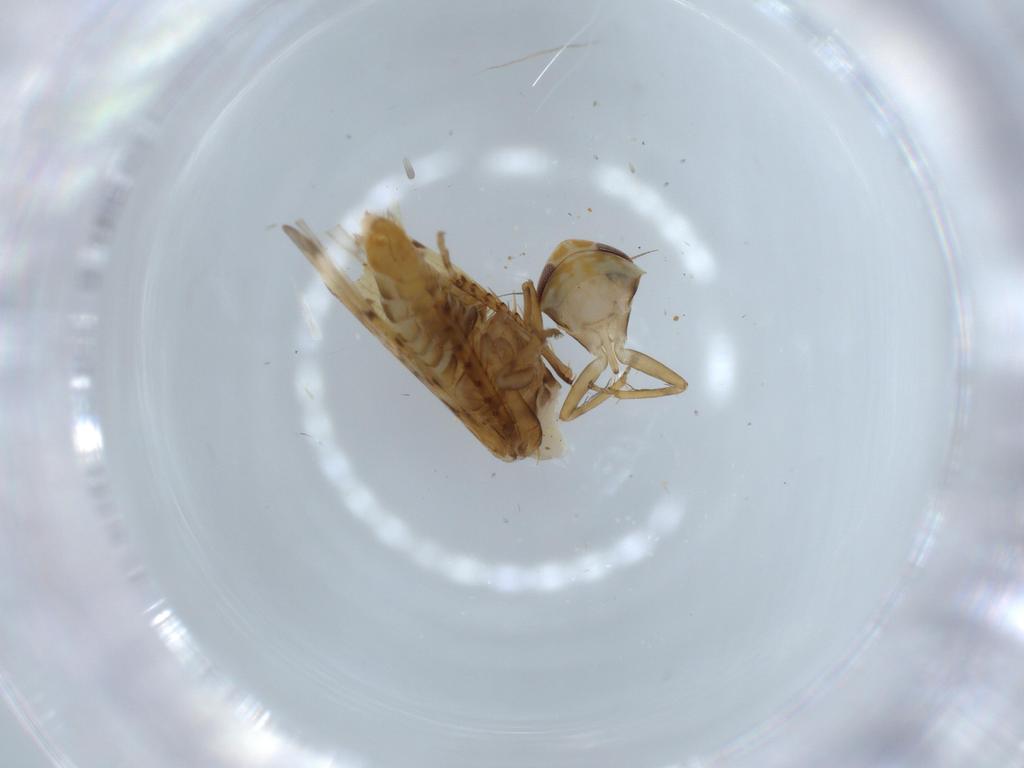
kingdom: Animalia
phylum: Arthropoda
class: Insecta
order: Hemiptera
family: Cicadellidae
